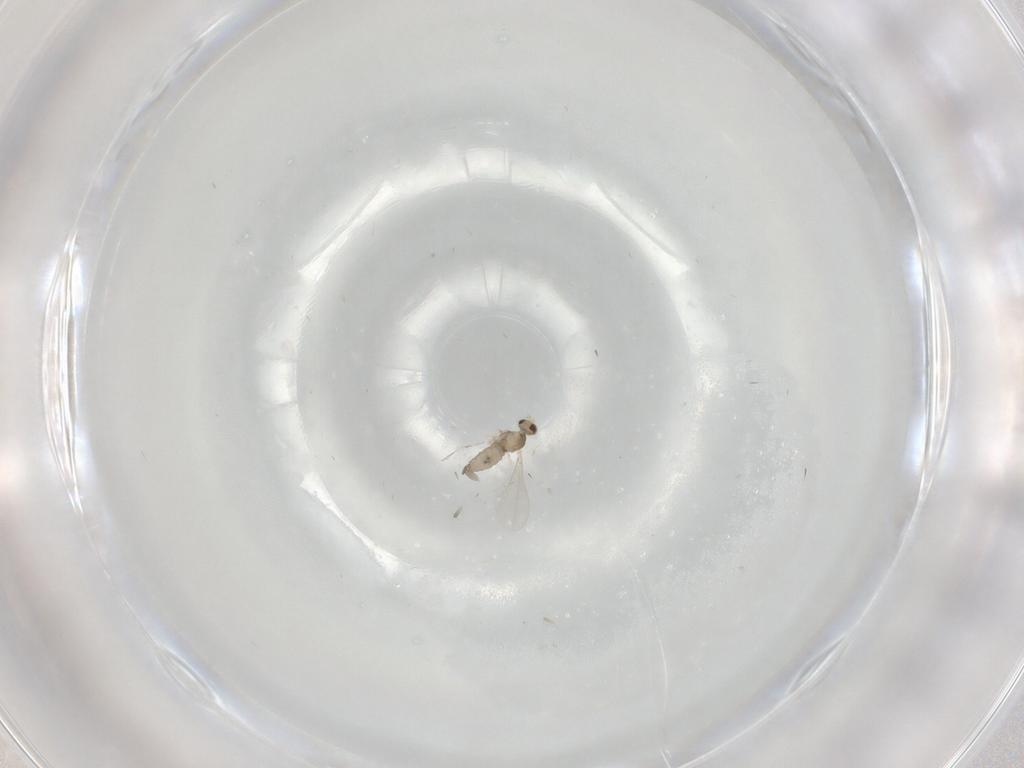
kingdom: Animalia
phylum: Arthropoda
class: Insecta
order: Diptera
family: Cecidomyiidae
